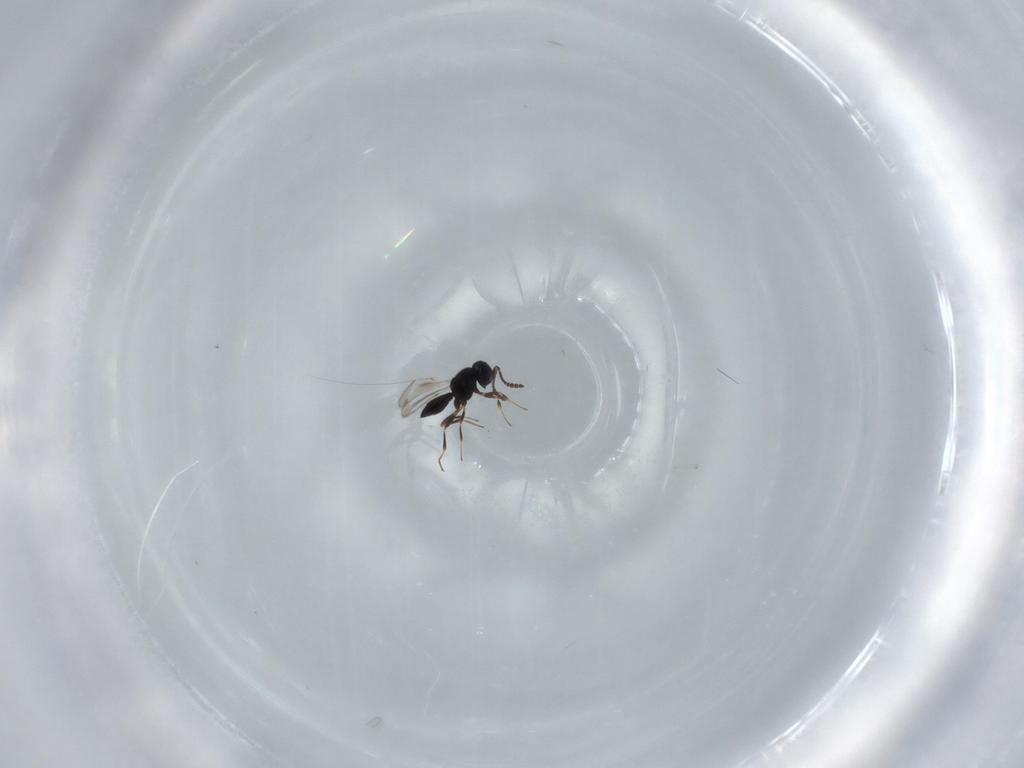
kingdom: Animalia
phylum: Arthropoda
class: Insecta
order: Hymenoptera
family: Scelionidae
